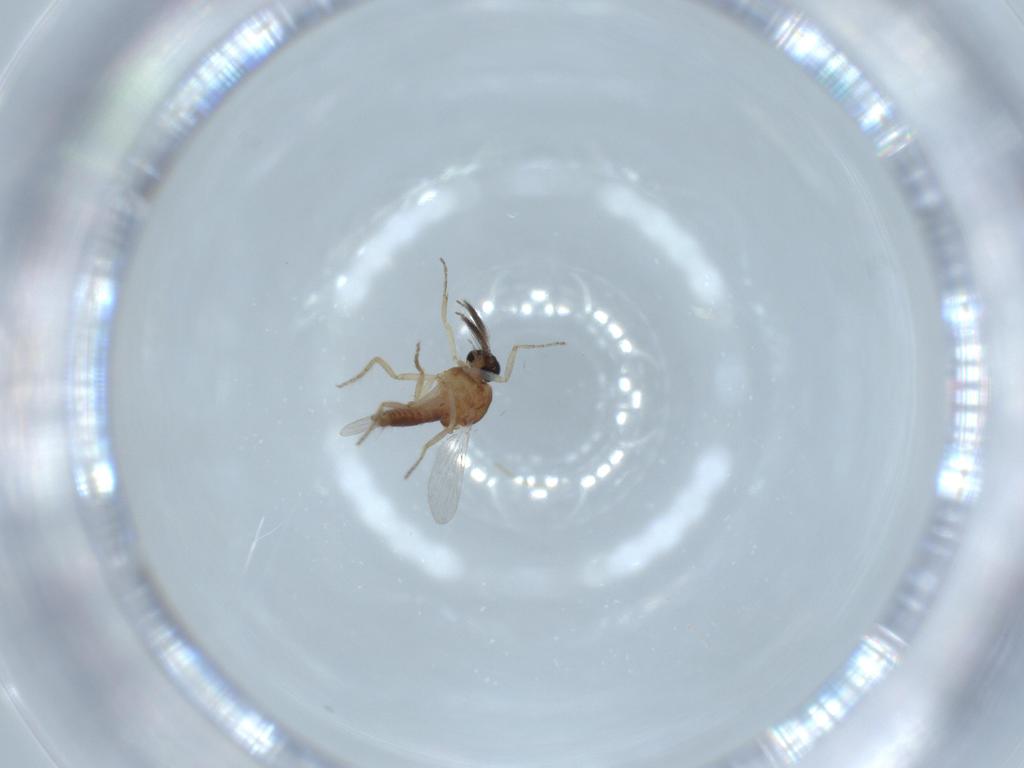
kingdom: Animalia
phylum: Arthropoda
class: Insecta
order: Diptera
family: Ceratopogonidae
